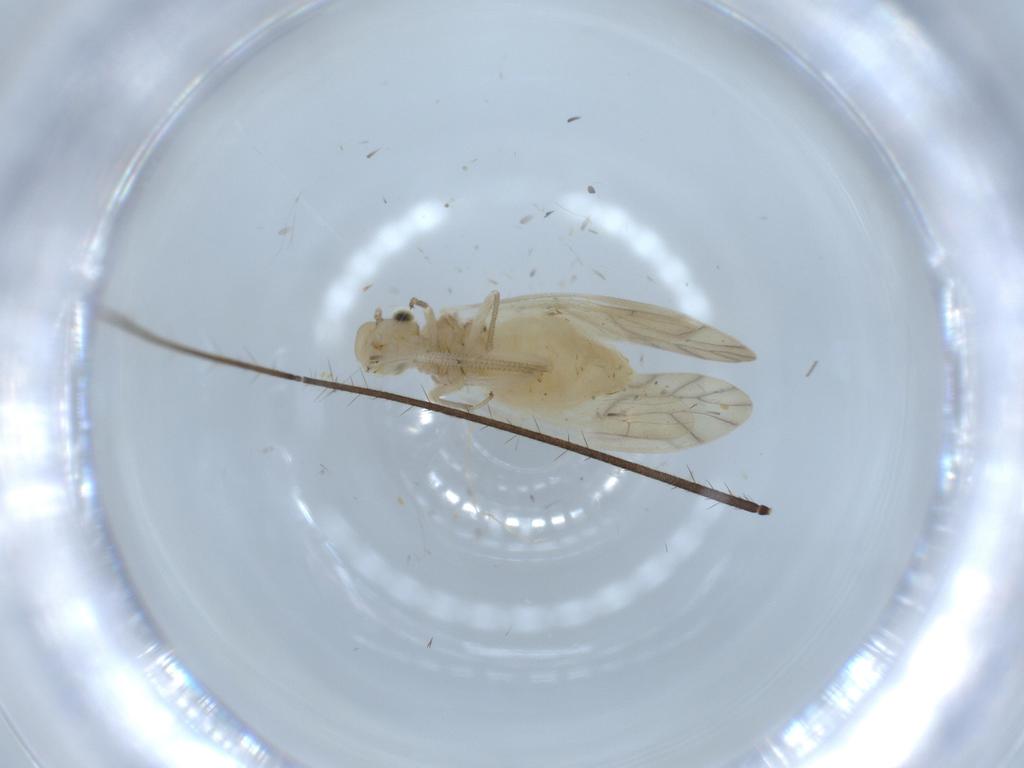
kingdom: Animalia
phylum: Arthropoda
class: Insecta
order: Psocodea
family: Caeciliusidae
